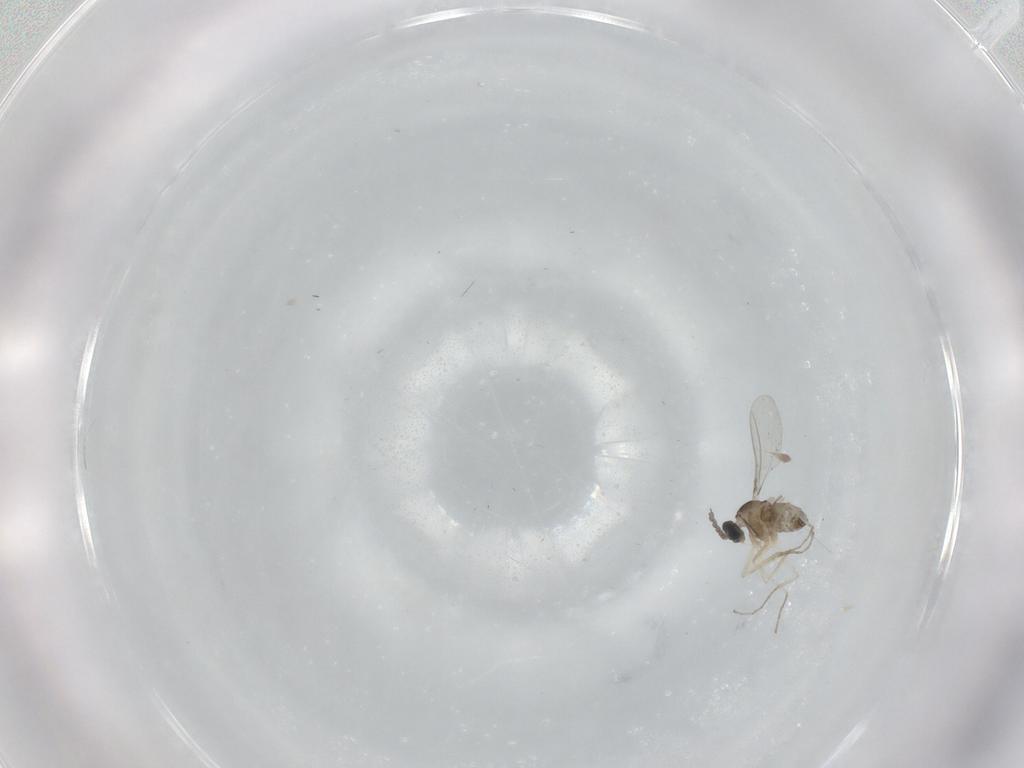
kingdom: Animalia
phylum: Arthropoda
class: Insecta
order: Diptera
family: Cecidomyiidae
